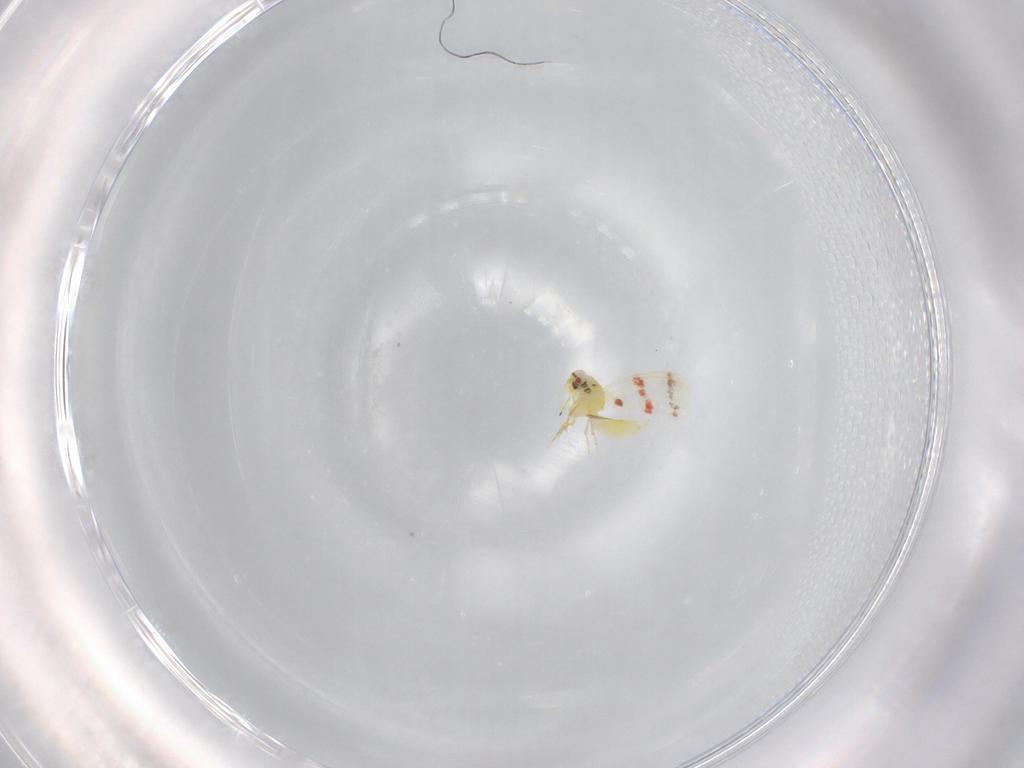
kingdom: Animalia
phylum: Arthropoda
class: Insecta
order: Hemiptera
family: Aleyrodidae
